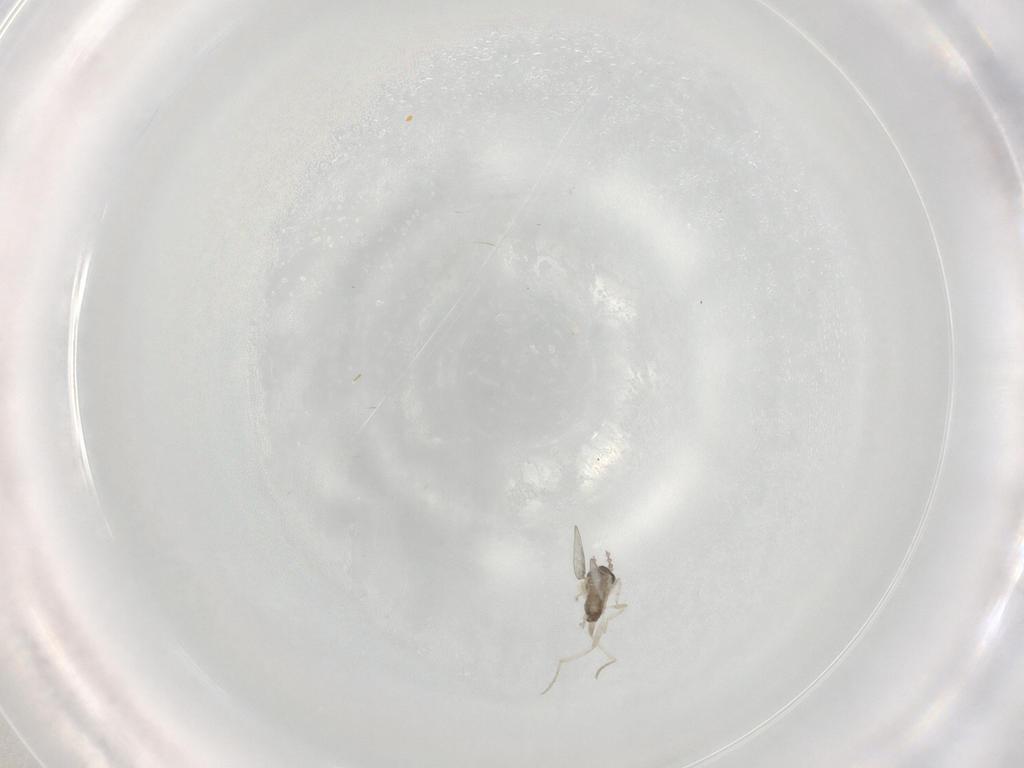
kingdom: Animalia
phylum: Arthropoda
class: Insecta
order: Diptera
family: Cecidomyiidae
